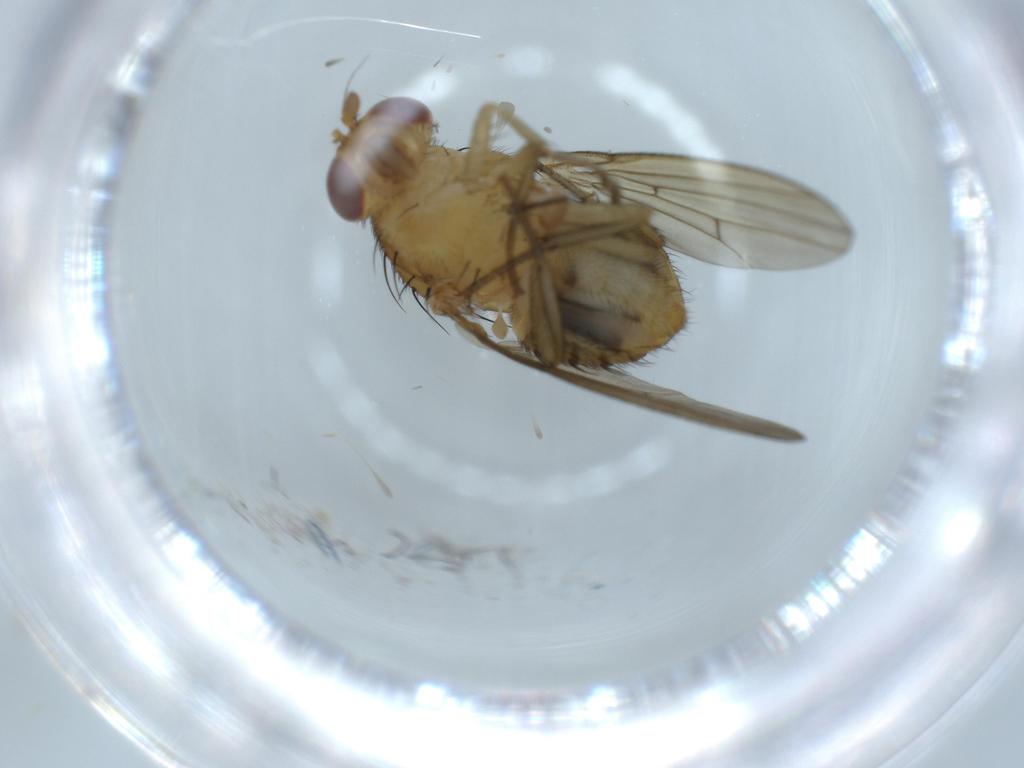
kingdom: Animalia
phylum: Arthropoda
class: Insecta
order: Diptera
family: Sciaridae
